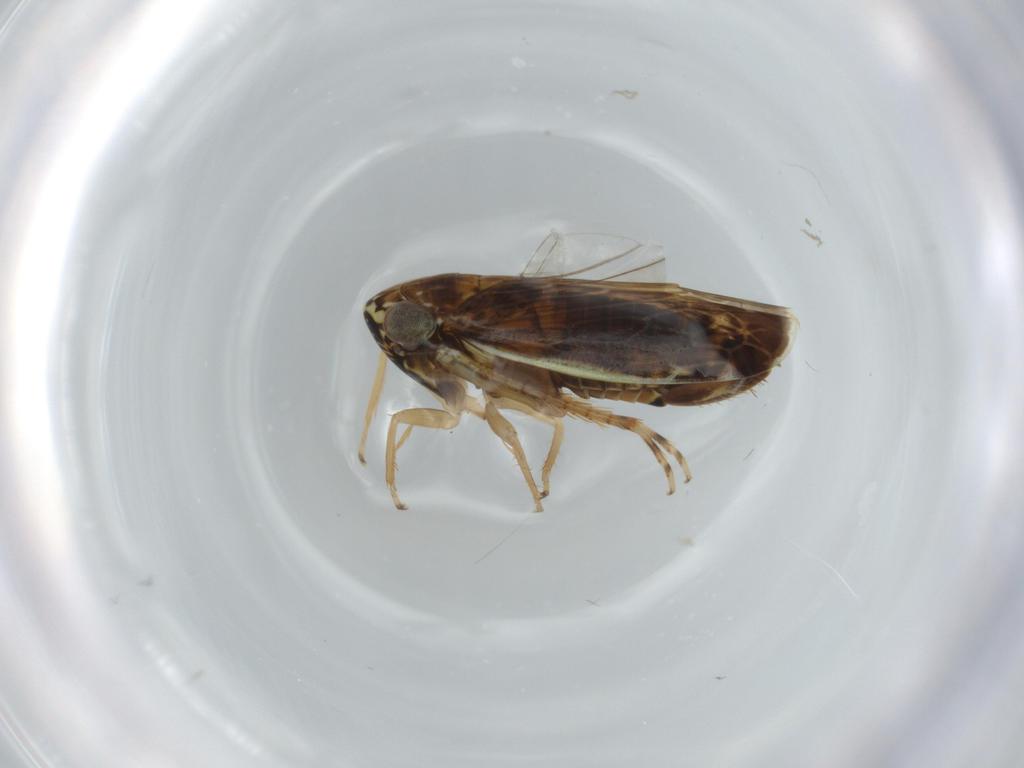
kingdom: Animalia
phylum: Arthropoda
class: Insecta
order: Hemiptera
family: Cicadellidae
